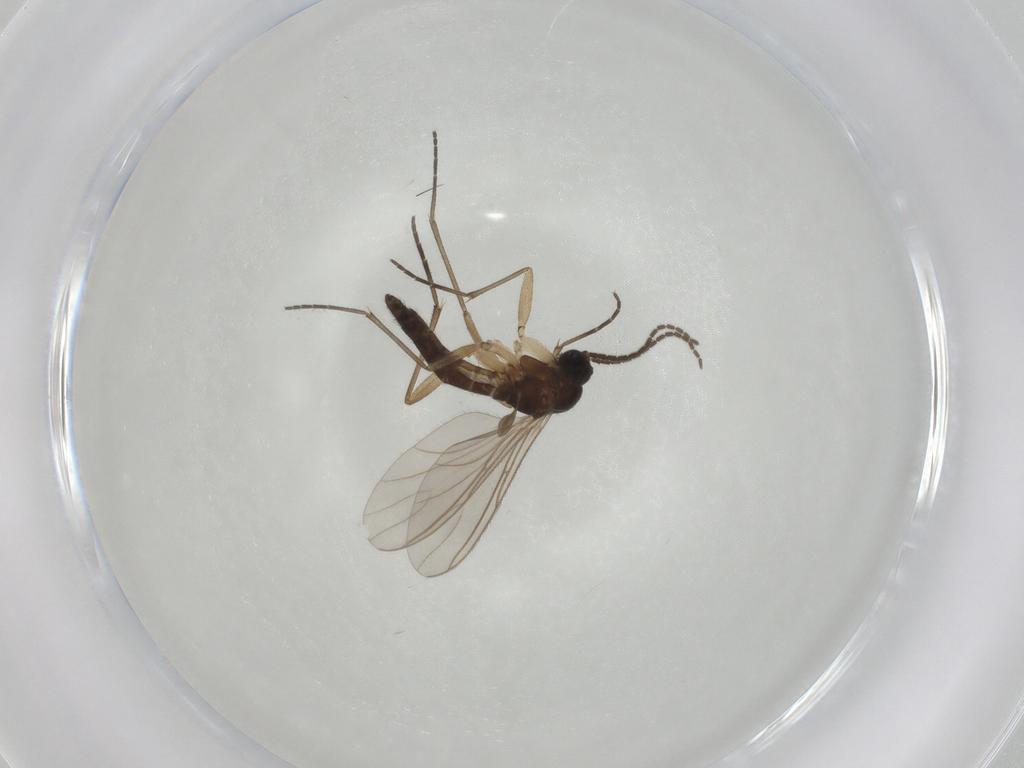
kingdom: Animalia
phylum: Arthropoda
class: Insecta
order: Diptera
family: Sciaridae
